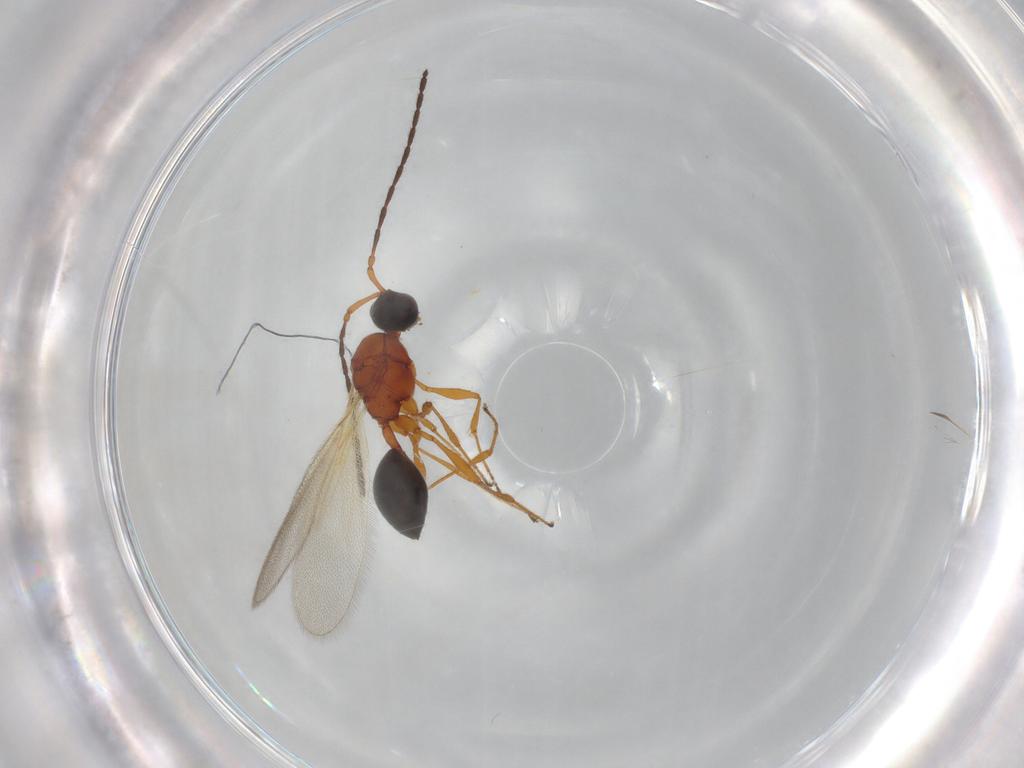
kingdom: Animalia
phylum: Arthropoda
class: Insecta
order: Hymenoptera
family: Diapriidae
